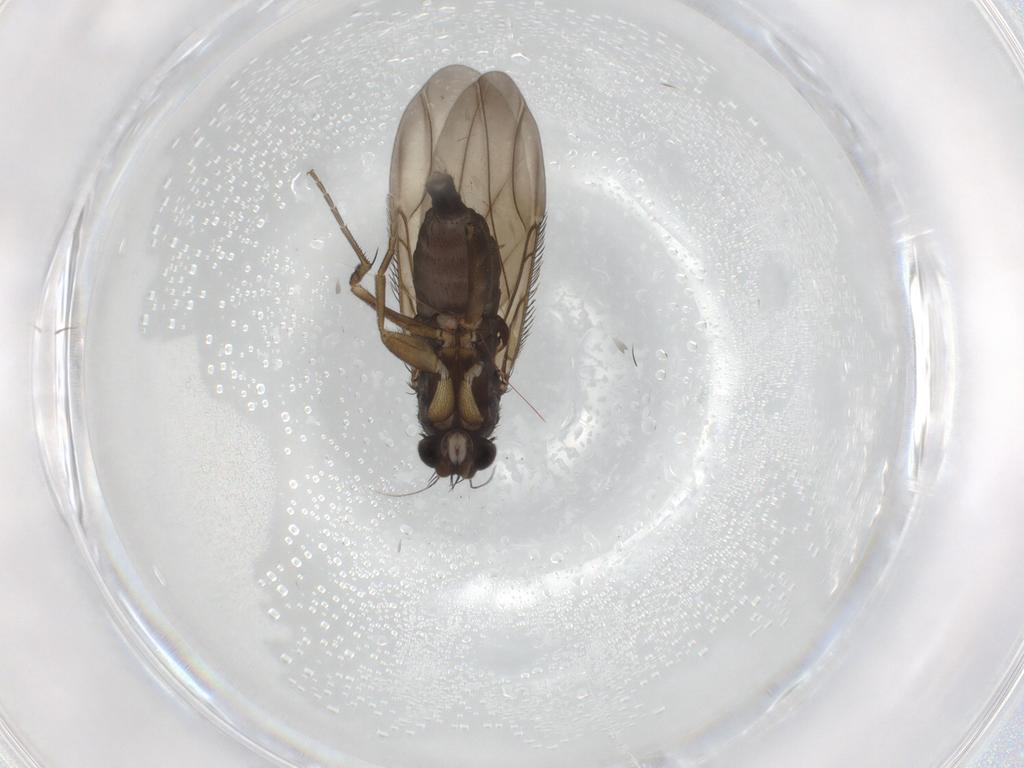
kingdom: Animalia
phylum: Arthropoda
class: Insecta
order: Diptera
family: Phoridae
